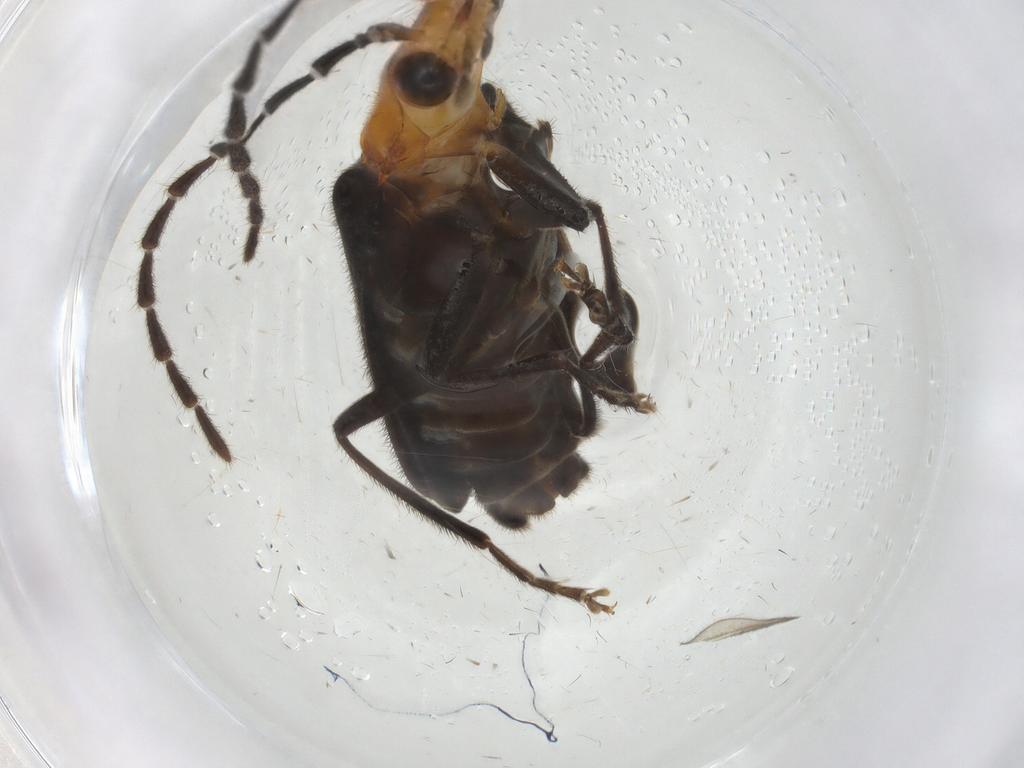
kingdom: Animalia
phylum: Arthropoda
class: Insecta
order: Coleoptera
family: Cantharidae
